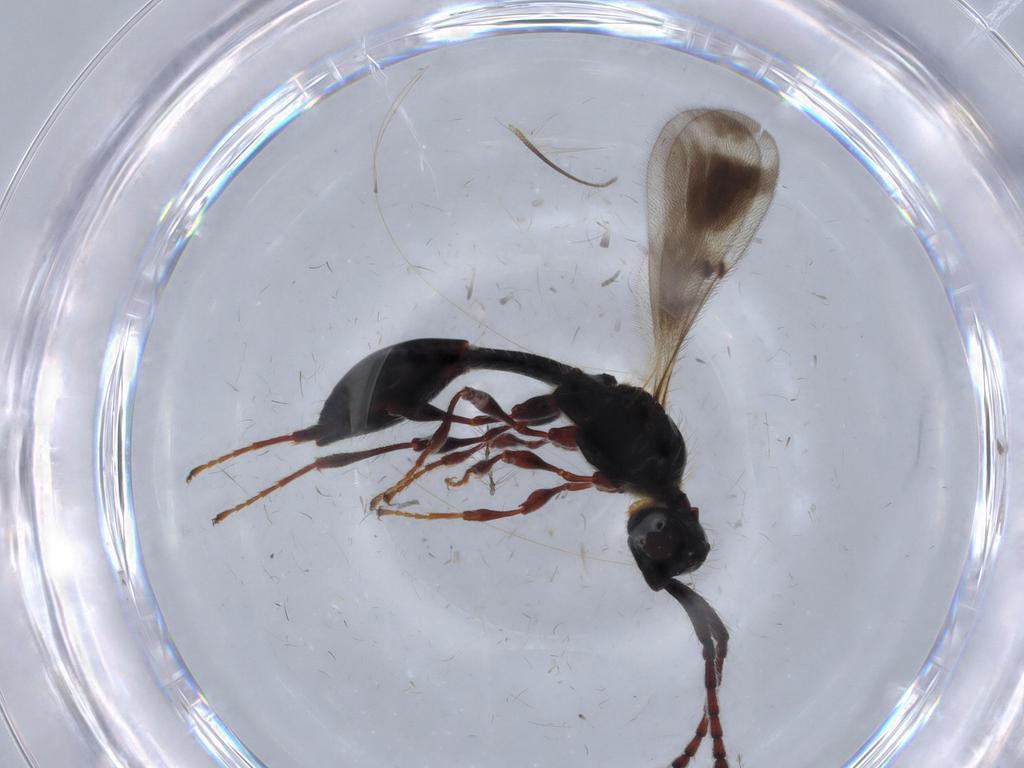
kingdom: Animalia
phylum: Arthropoda
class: Insecta
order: Hymenoptera
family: Diapriidae
